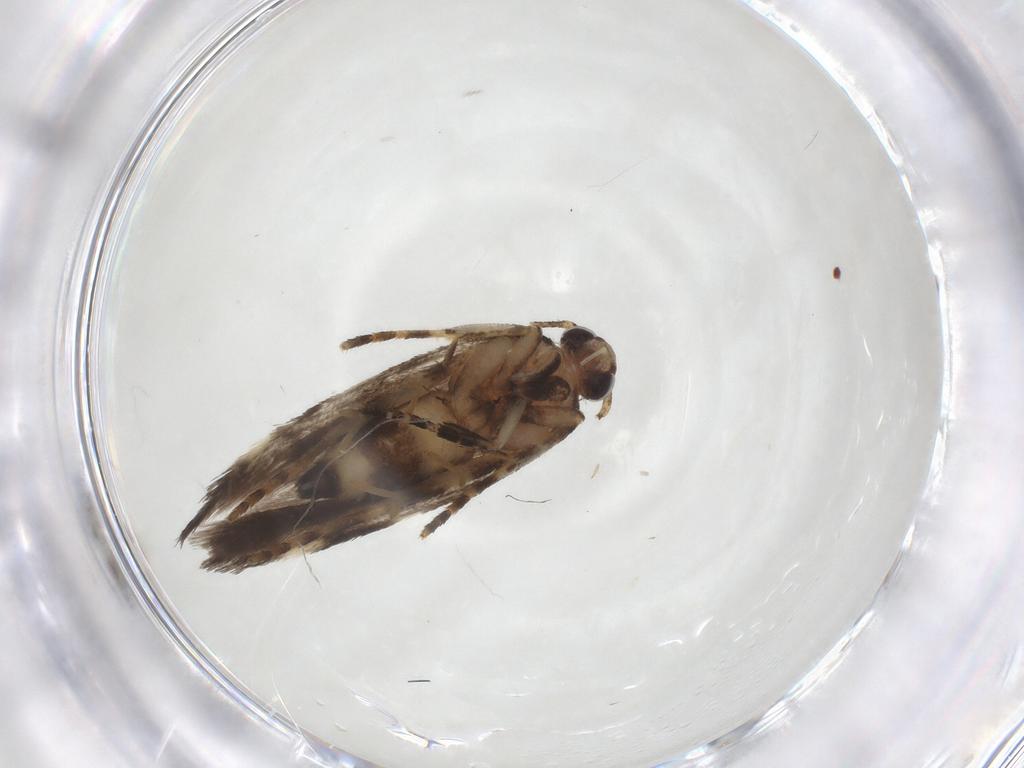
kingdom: Animalia
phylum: Arthropoda
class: Insecta
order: Lepidoptera
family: Gelechiidae
